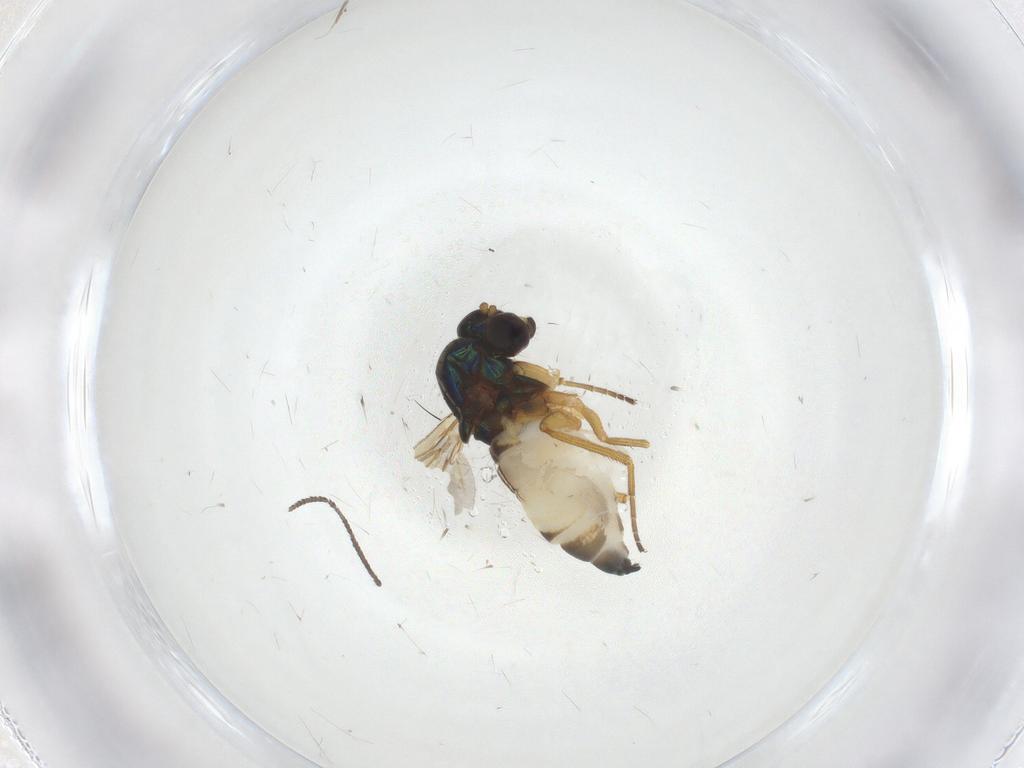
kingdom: Animalia
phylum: Arthropoda
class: Insecta
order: Diptera
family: Dolichopodidae
